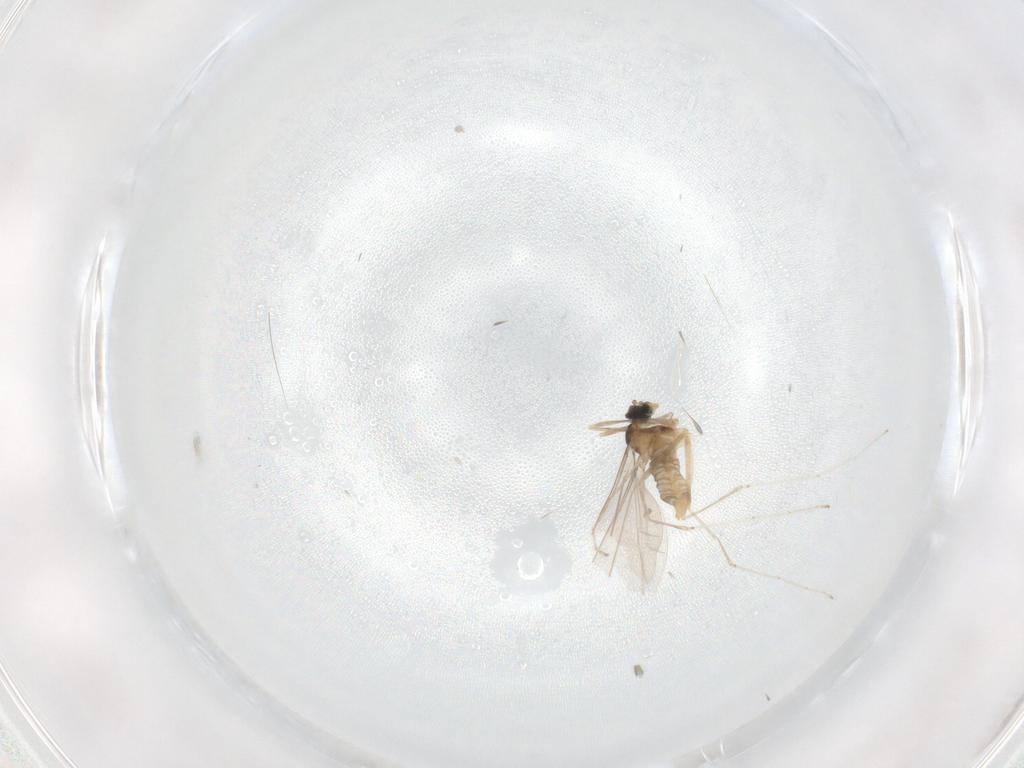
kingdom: Animalia
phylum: Arthropoda
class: Insecta
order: Diptera
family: Cecidomyiidae
